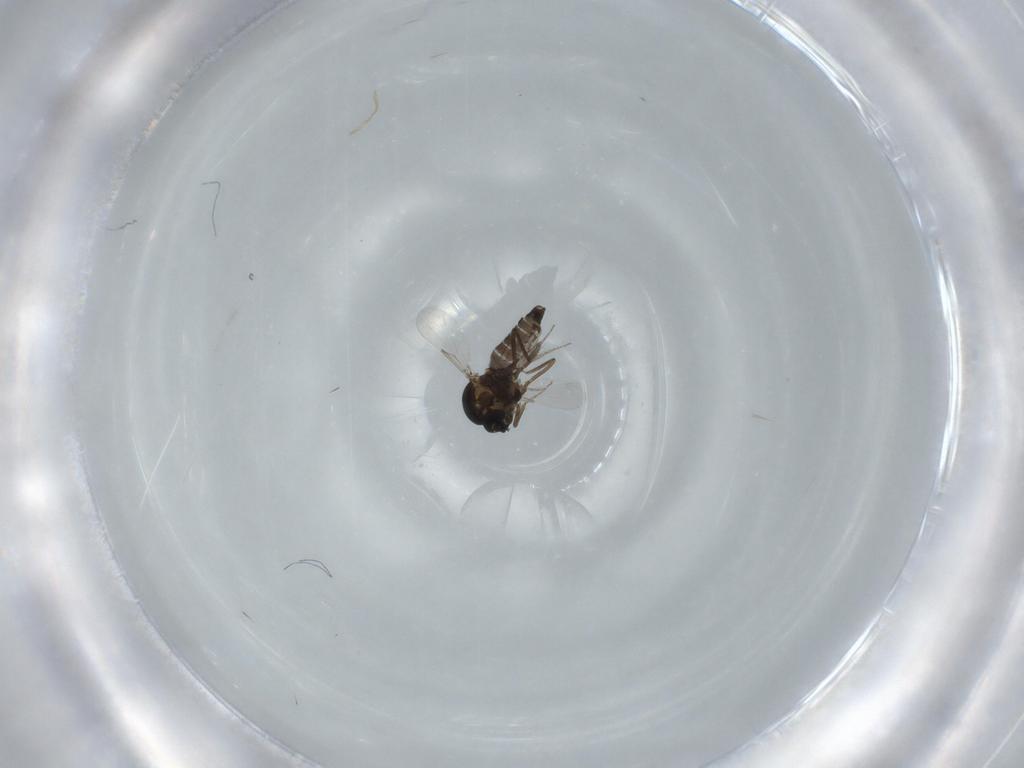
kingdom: Animalia
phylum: Arthropoda
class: Insecta
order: Diptera
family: Ceratopogonidae
